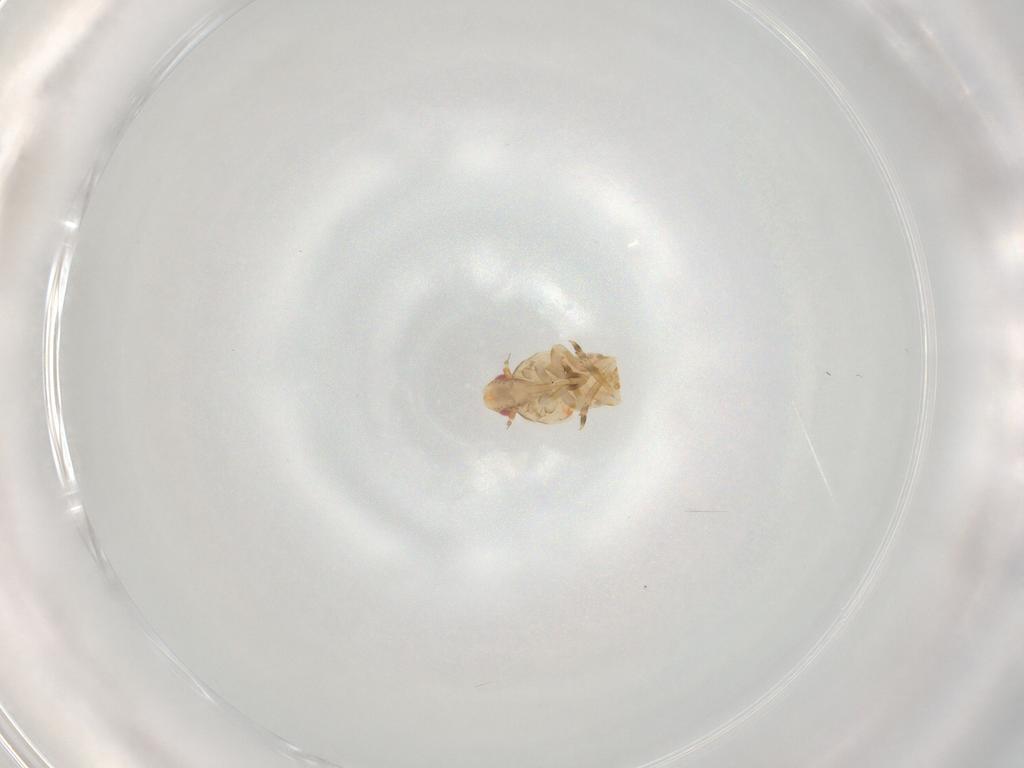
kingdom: Animalia
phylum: Arthropoda
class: Insecta
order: Hemiptera
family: Flatidae
